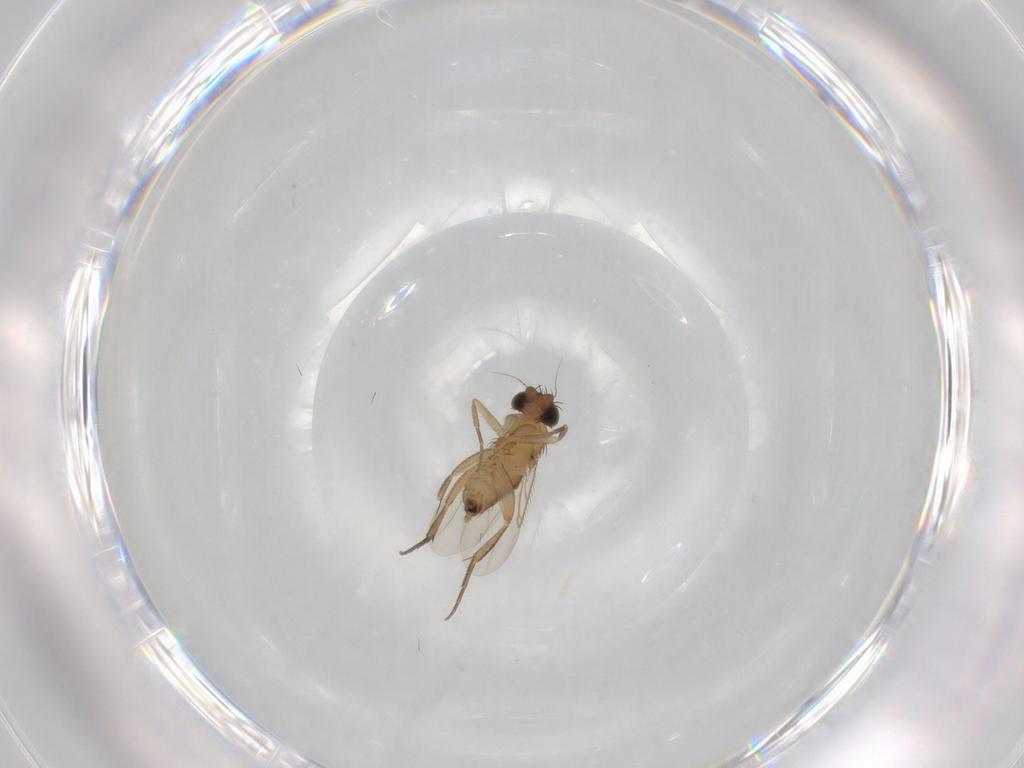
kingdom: Animalia
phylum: Arthropoda
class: Insecta
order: Diptera
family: Phoridae
